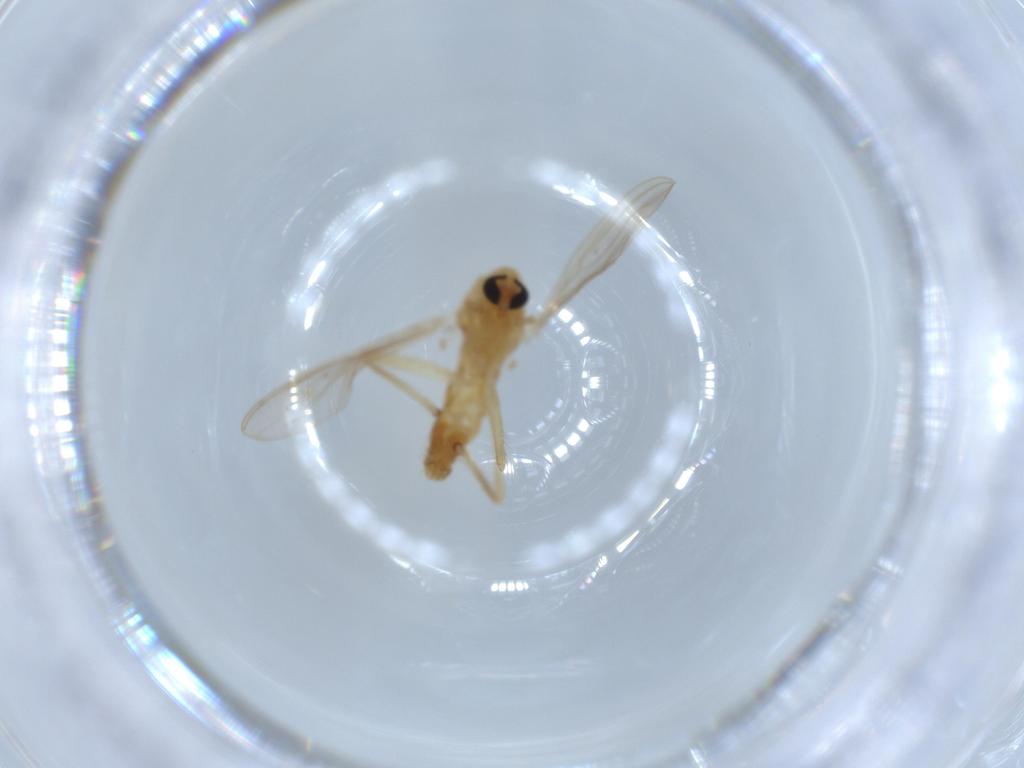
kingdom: Animalia
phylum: Arthropoda
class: Insecta
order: Diptera
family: Chironomidae
